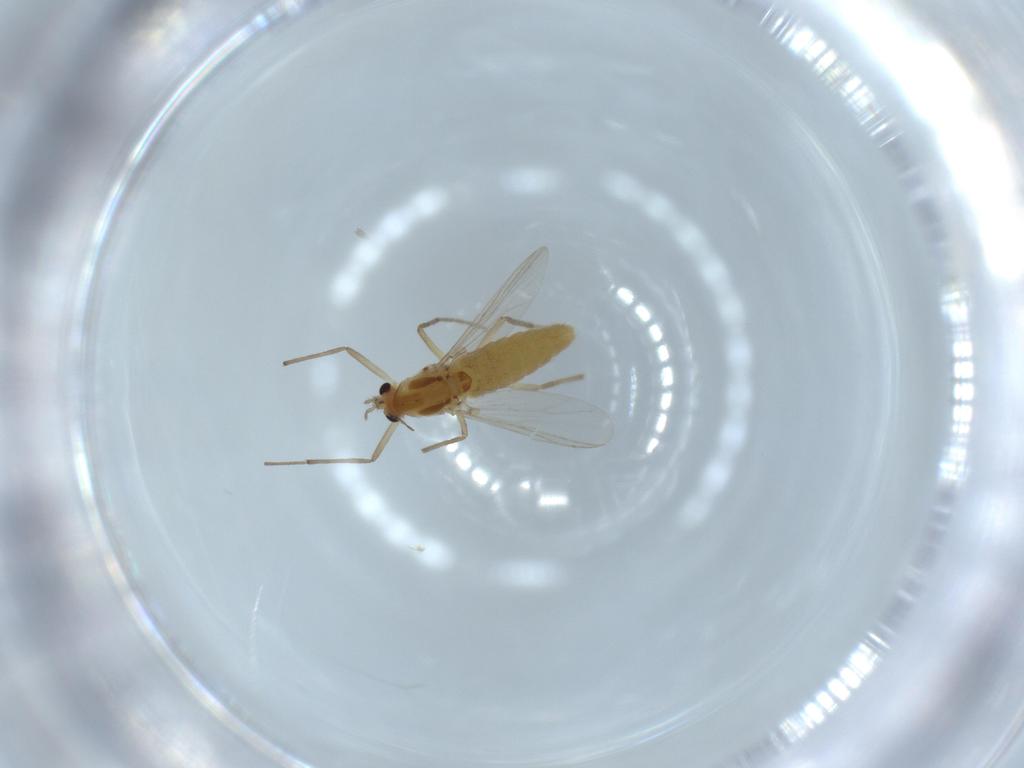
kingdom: Animalia
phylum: Arthropoda
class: Insecta
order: Diptera
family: Chironomidae
